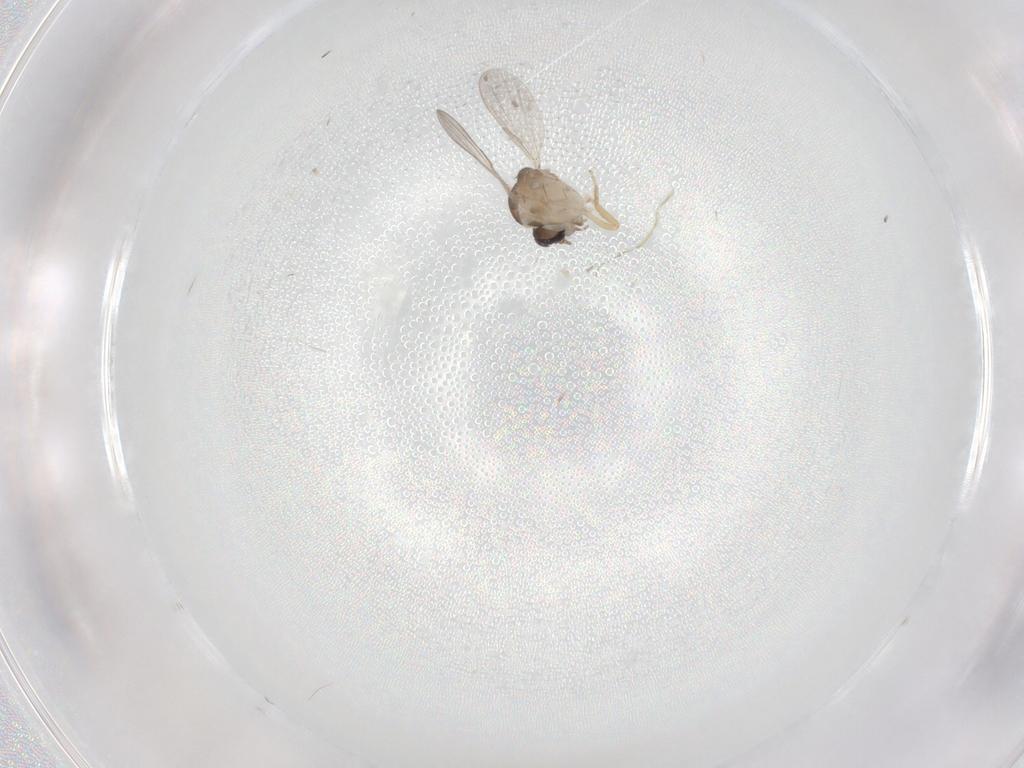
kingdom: Animalia
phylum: Arthropoda
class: Insecta
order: Diptera
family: Ceratopogonidae
